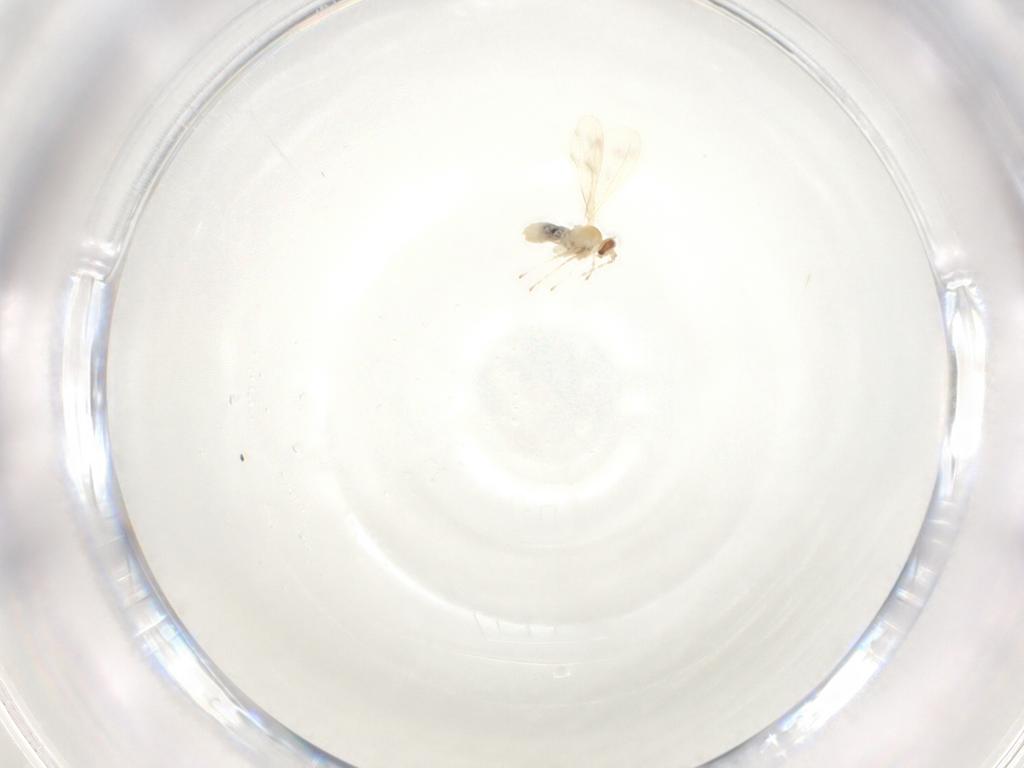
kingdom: Animalia
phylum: Arthropoda
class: Insecta
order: Diptera
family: Cecidomyiidae
